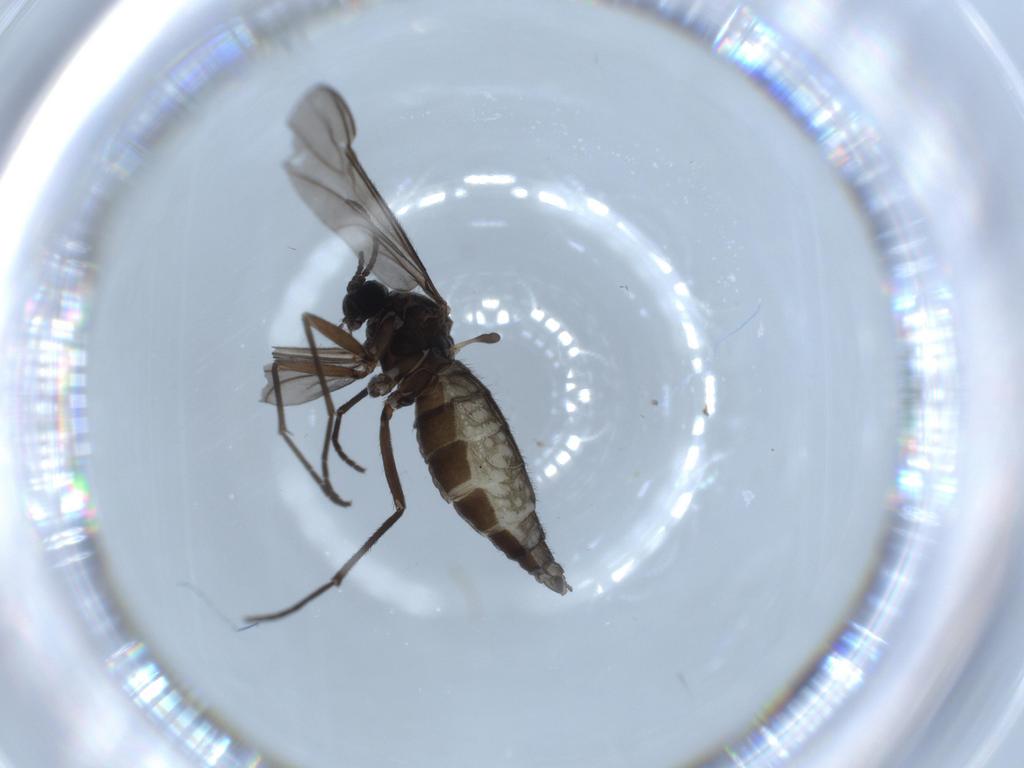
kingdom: Animalia
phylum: Arthropoda
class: Insecta
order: Diptera
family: Sciaridae
